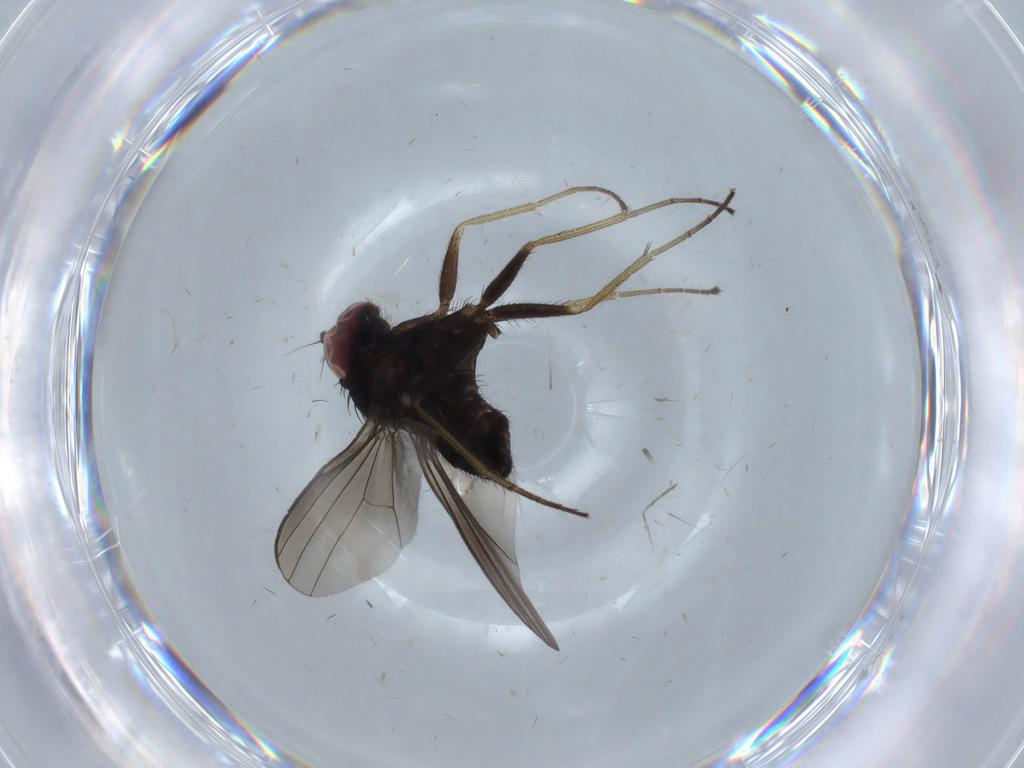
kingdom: Animalia
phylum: Arthropoda
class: Insecta
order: Diptera
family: Dolichopodidae
